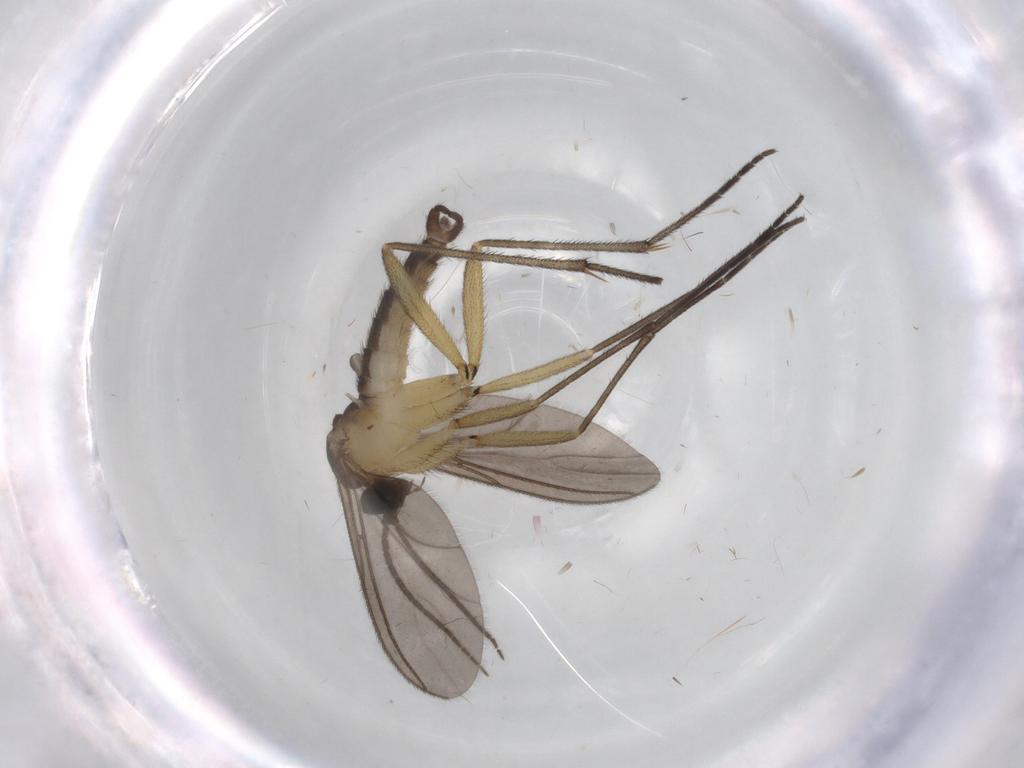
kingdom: Animalia
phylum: Arthropoda
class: Insecta
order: Diptera
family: Sciaridae
